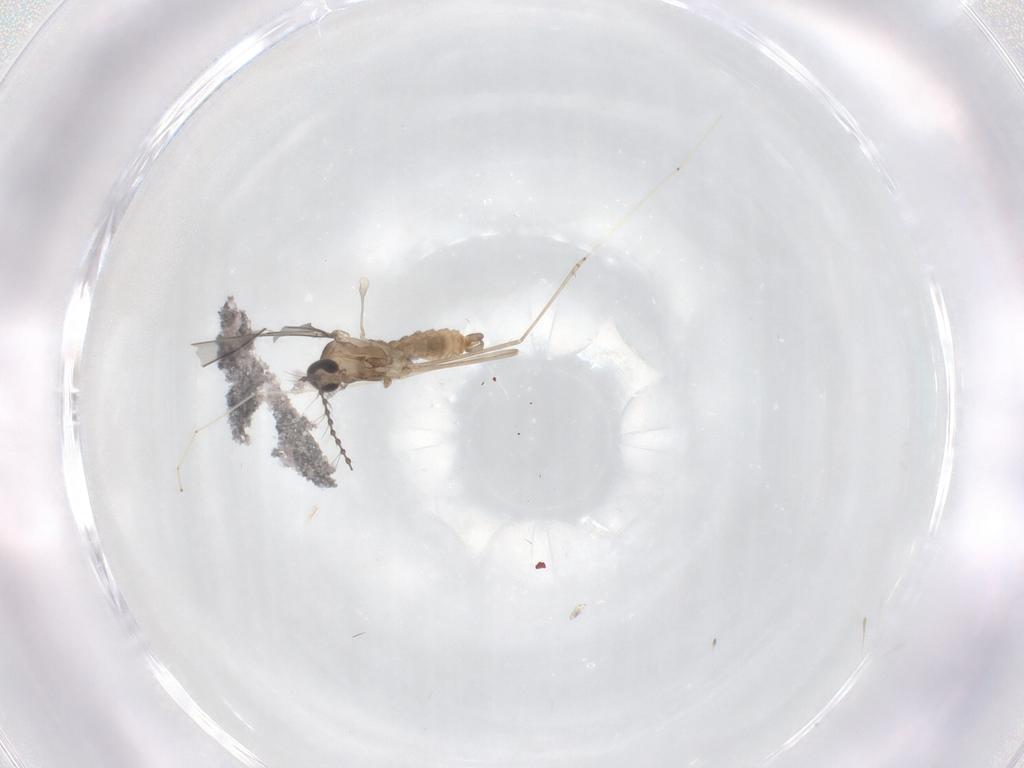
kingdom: Animalia
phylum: Arthropoda
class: Insecta
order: Diptera
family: Cecidomyiidae
